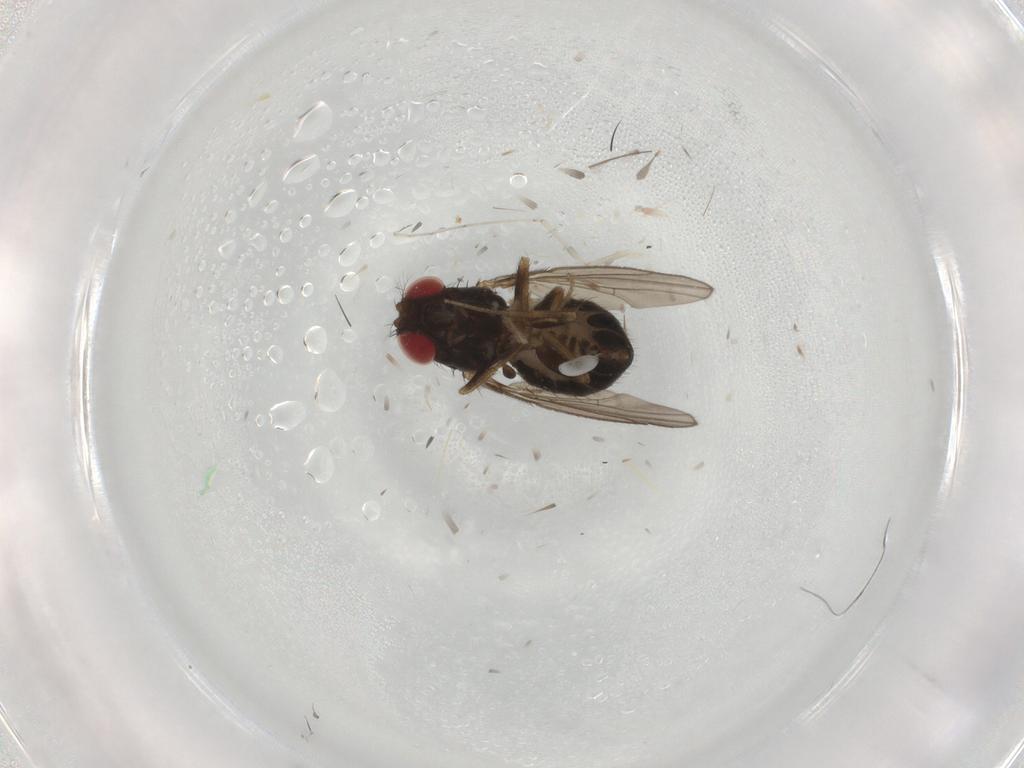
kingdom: Animalia
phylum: Arthropoda
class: Insecta
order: Diptera
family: Drosophilidae
